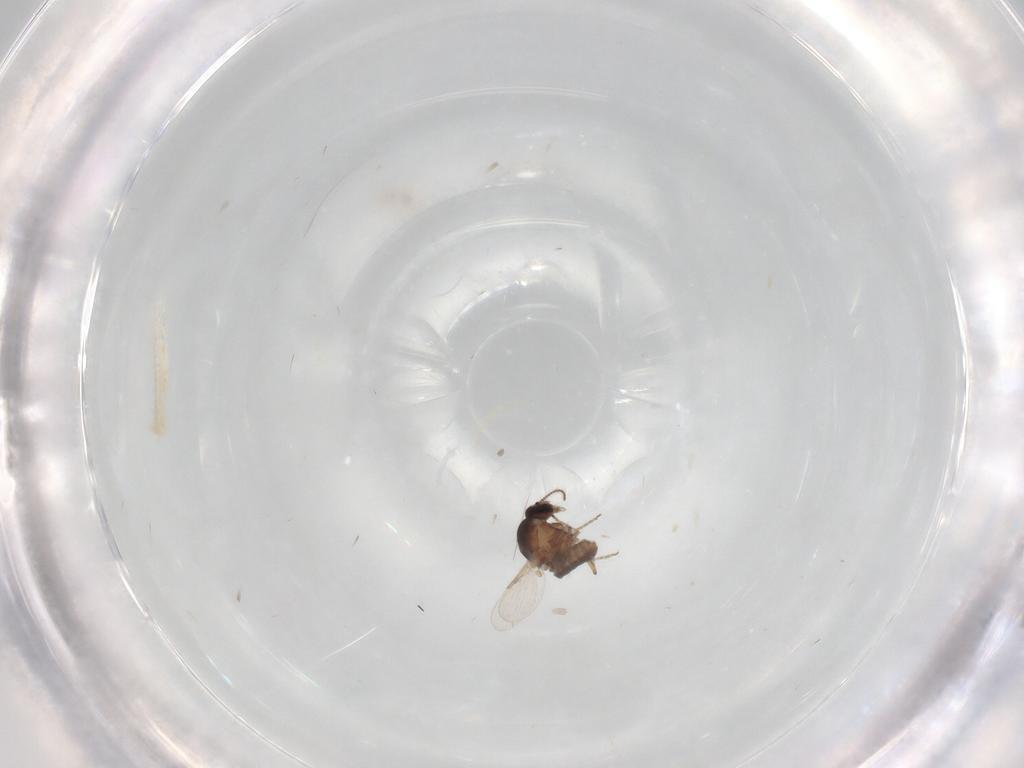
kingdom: Animalia
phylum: Arthropoda
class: Insecta
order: Diptera
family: Ceratopogonidae
